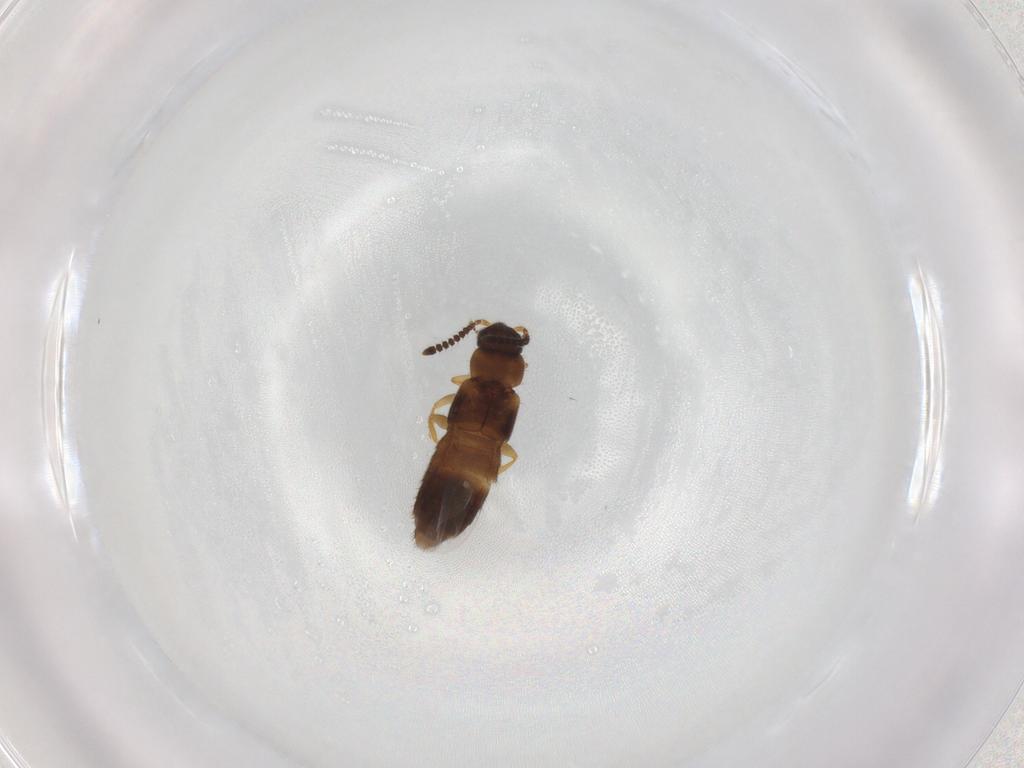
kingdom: Animalia
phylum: Arthropoda
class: Insecta
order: Coleoptera
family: Staphylinidae
